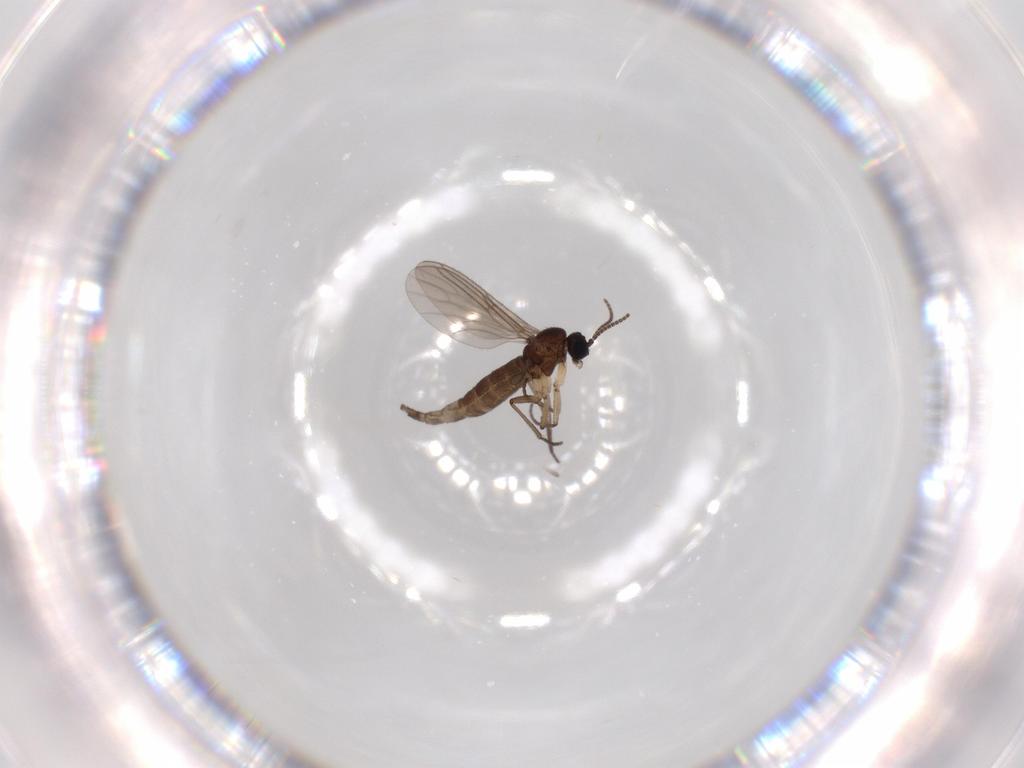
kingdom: Animalia
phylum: Arthropoda
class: Insecta
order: Diptera
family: Sciaridae
